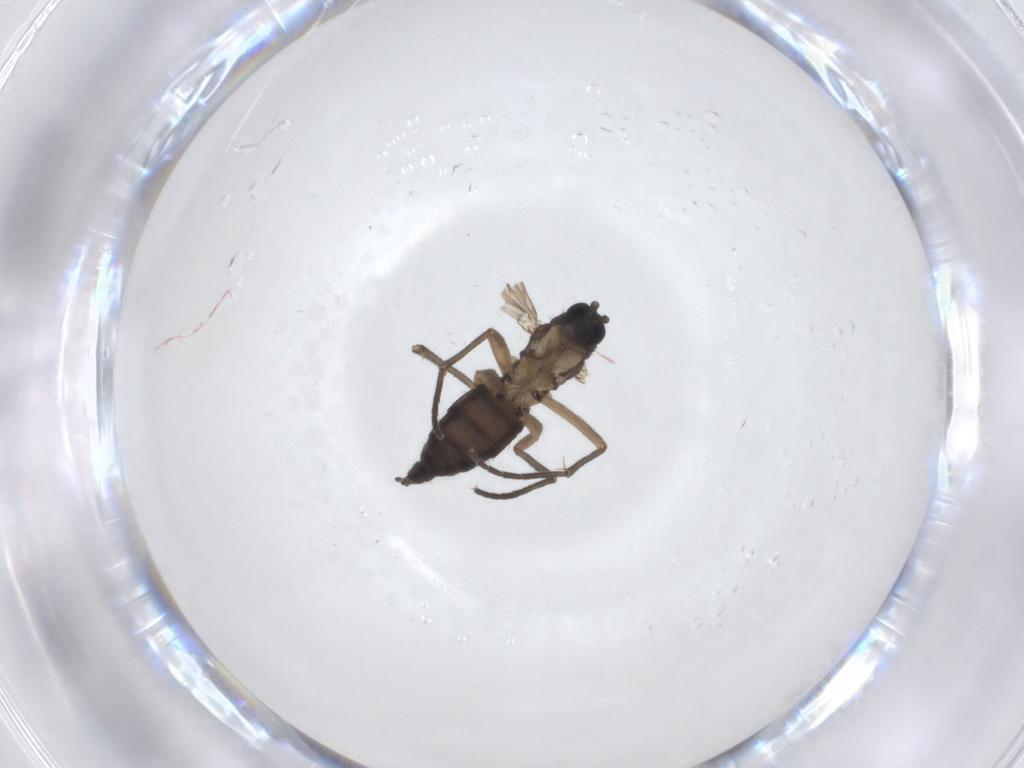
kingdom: Animalia
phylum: Arthropoda
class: Insecta
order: Diptera
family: Sciaridae
